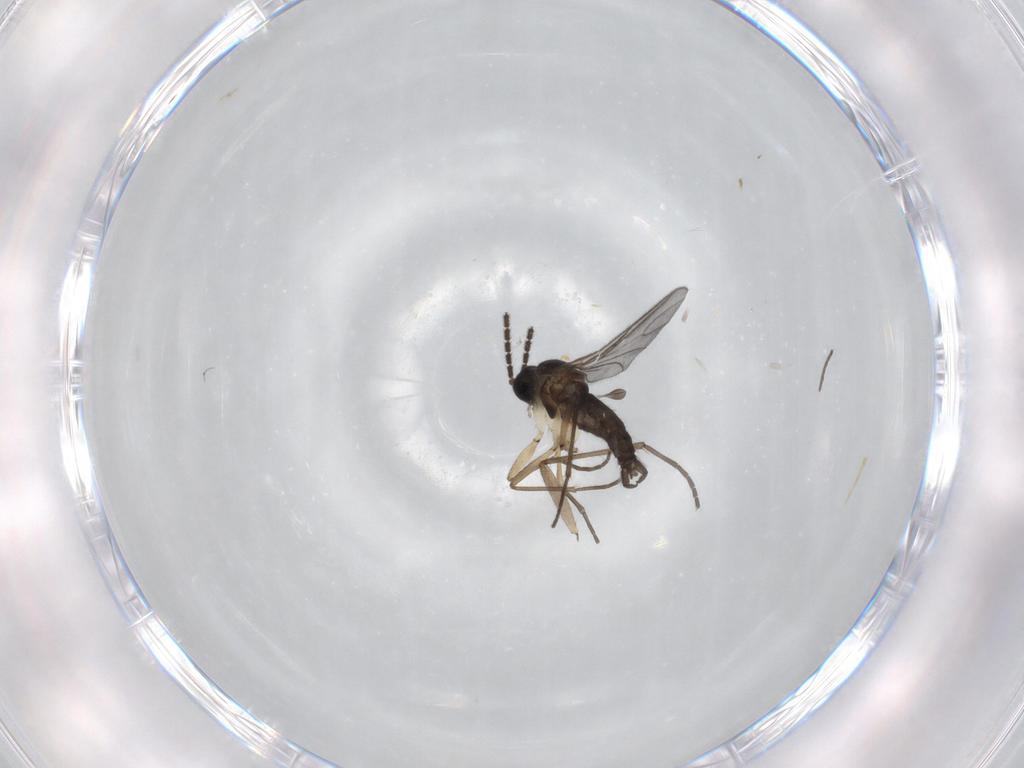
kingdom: Animalia
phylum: Arthropoda
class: Insecta
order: Diptera
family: Sciaridae
